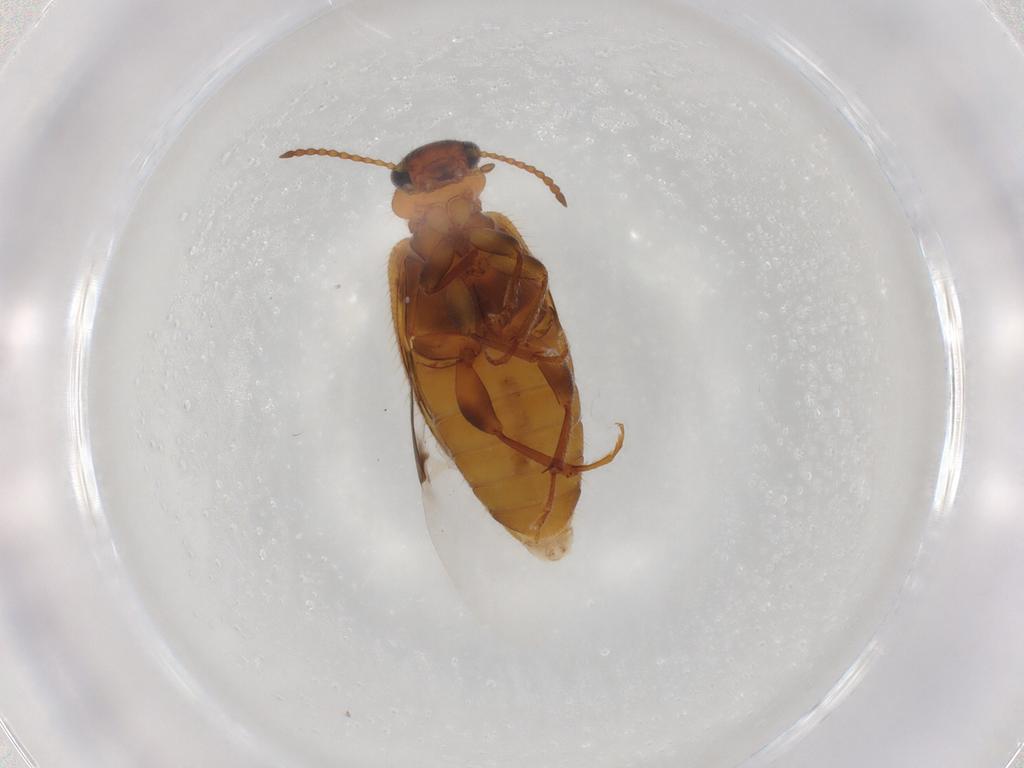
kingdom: Animalia
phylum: Arthropoda
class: Insecta
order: Coleoptera
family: Anthicidae
